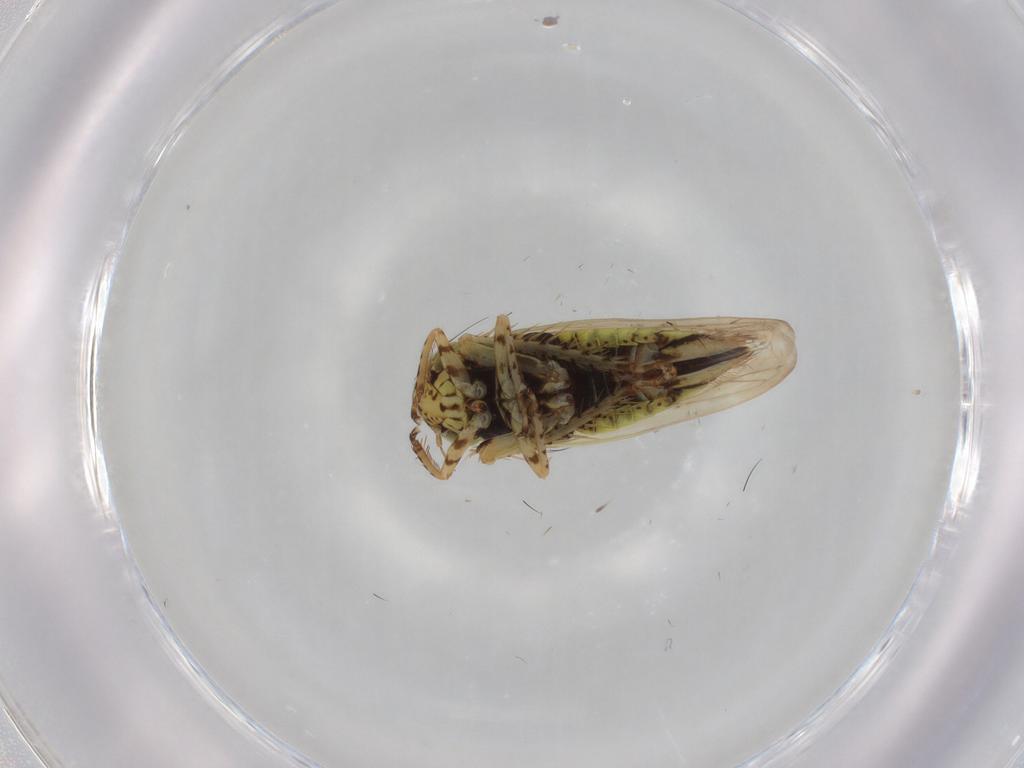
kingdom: Animalia
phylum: Arthropoda
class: Insecta
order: Hemiptera
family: Cicadellidae
